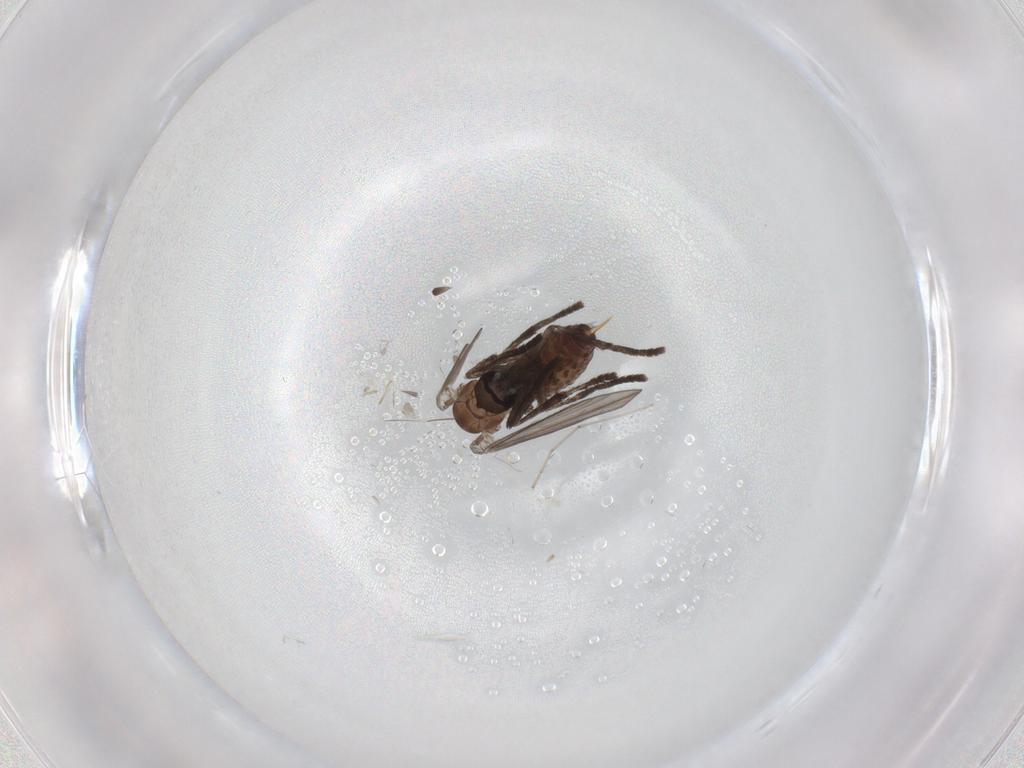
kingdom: Animalia
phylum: Arthropoda
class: Insecta
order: Diptera
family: Psychodidae
